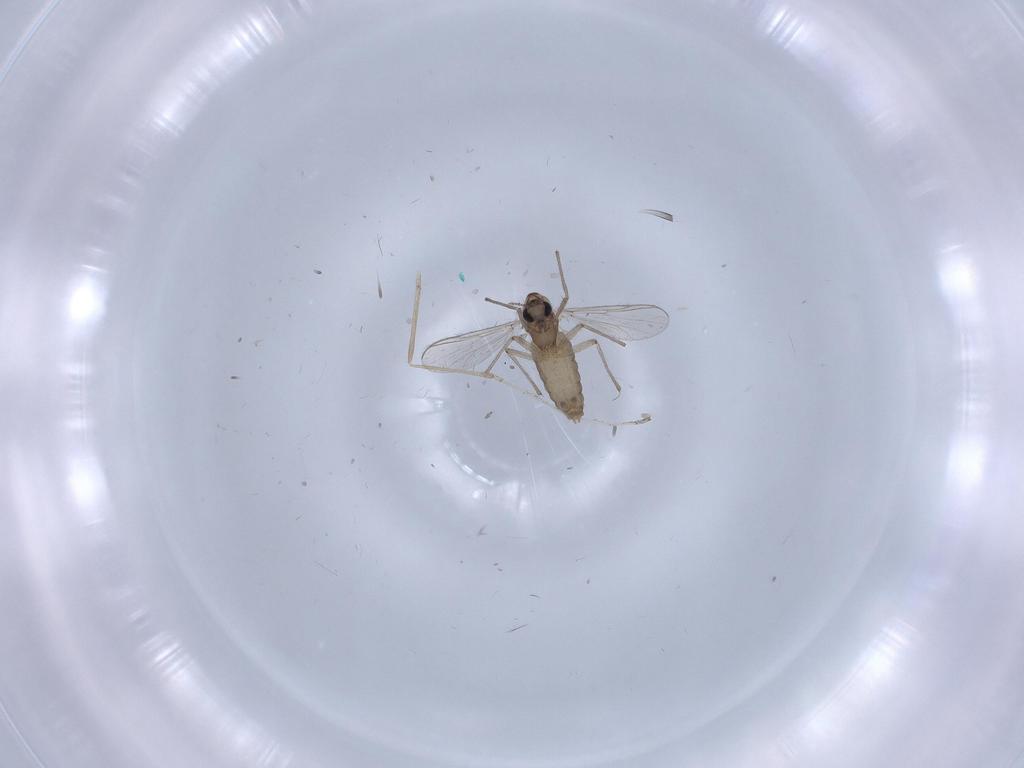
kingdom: Animalia
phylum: Arthropoda
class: Insecta
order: Diptera
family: Chironomidae
